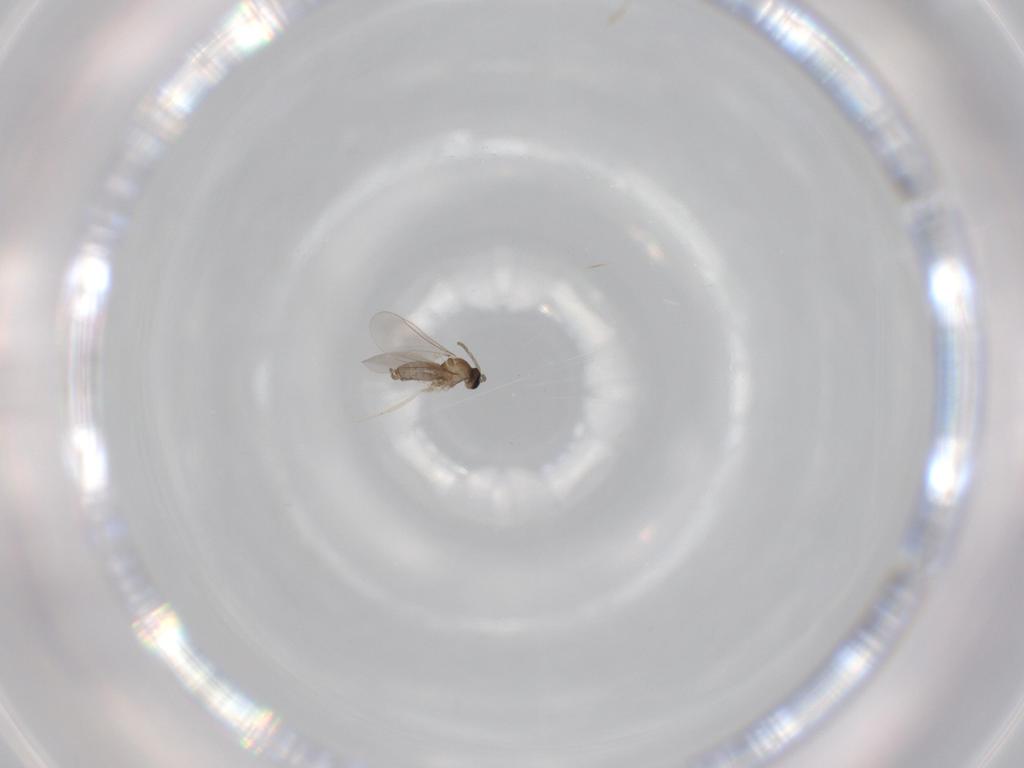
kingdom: Animalia
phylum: Arthropoda
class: Insecta
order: Diptera
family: Cecidomyiidae
